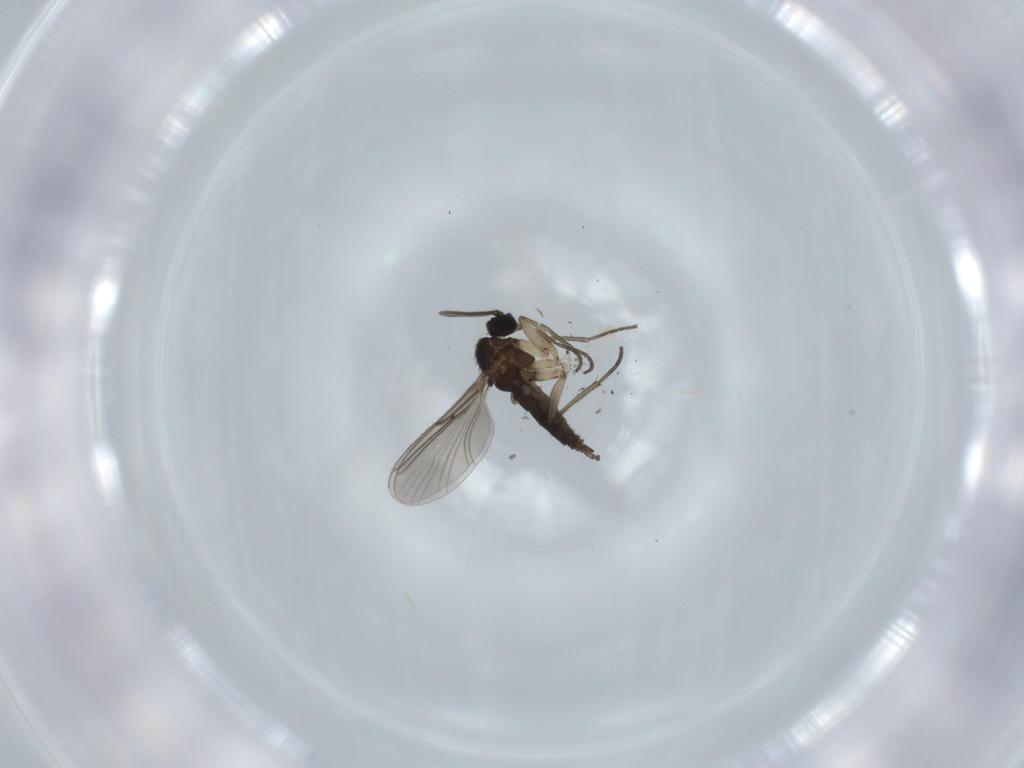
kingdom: Animalia
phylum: Arthropoda
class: Insecta
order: Diptera
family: Sciaridae
